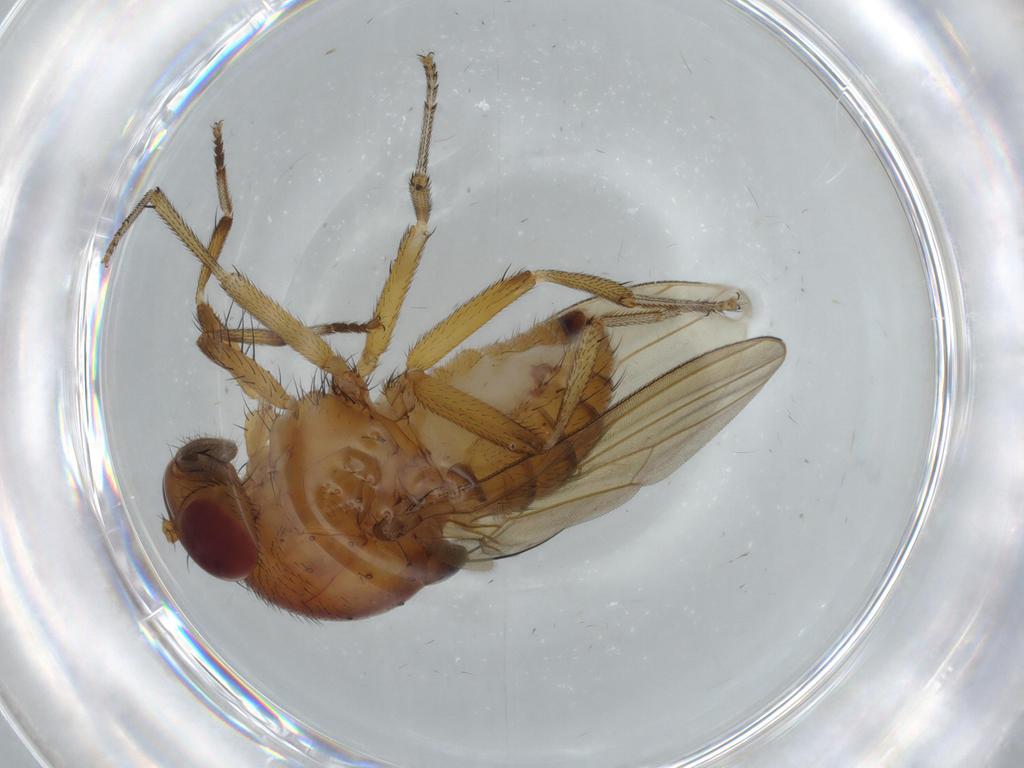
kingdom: Animalia
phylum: Arthropoda
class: Insecta
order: Diptera
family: Lauxaniidae
